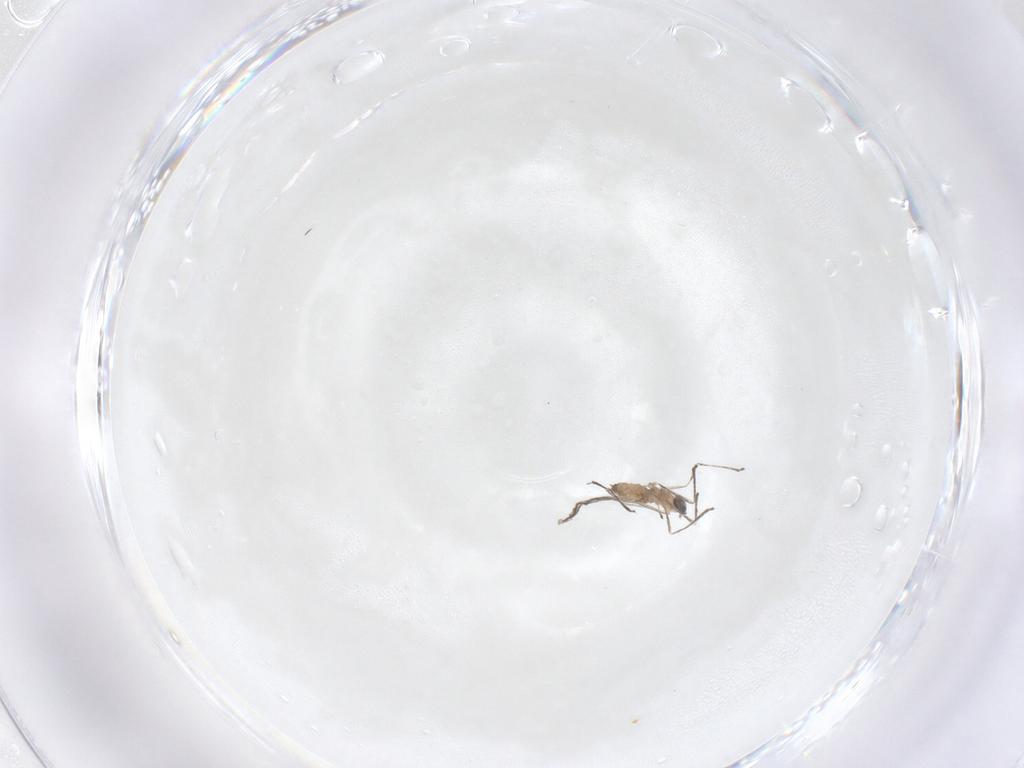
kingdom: Animalia
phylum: Arthropoda
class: Insecta
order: Diptera
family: Cecidomyiidae
